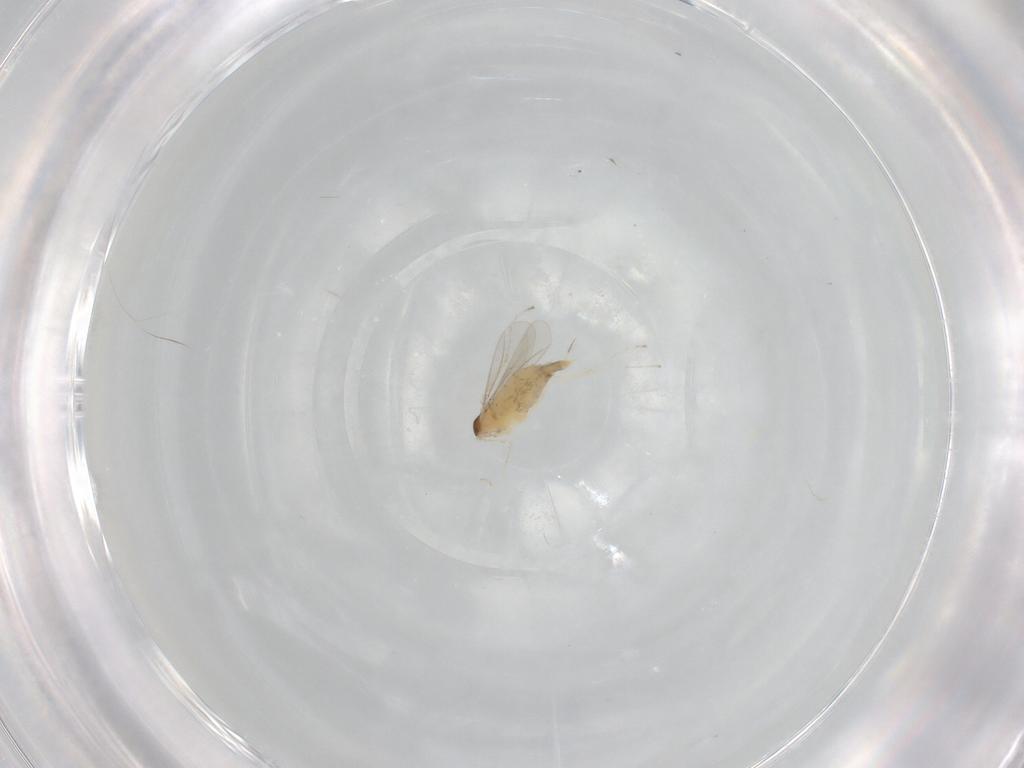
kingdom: Animalia
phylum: Arthropoda
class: Insecta
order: Diptera
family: Cecidomyiidae
